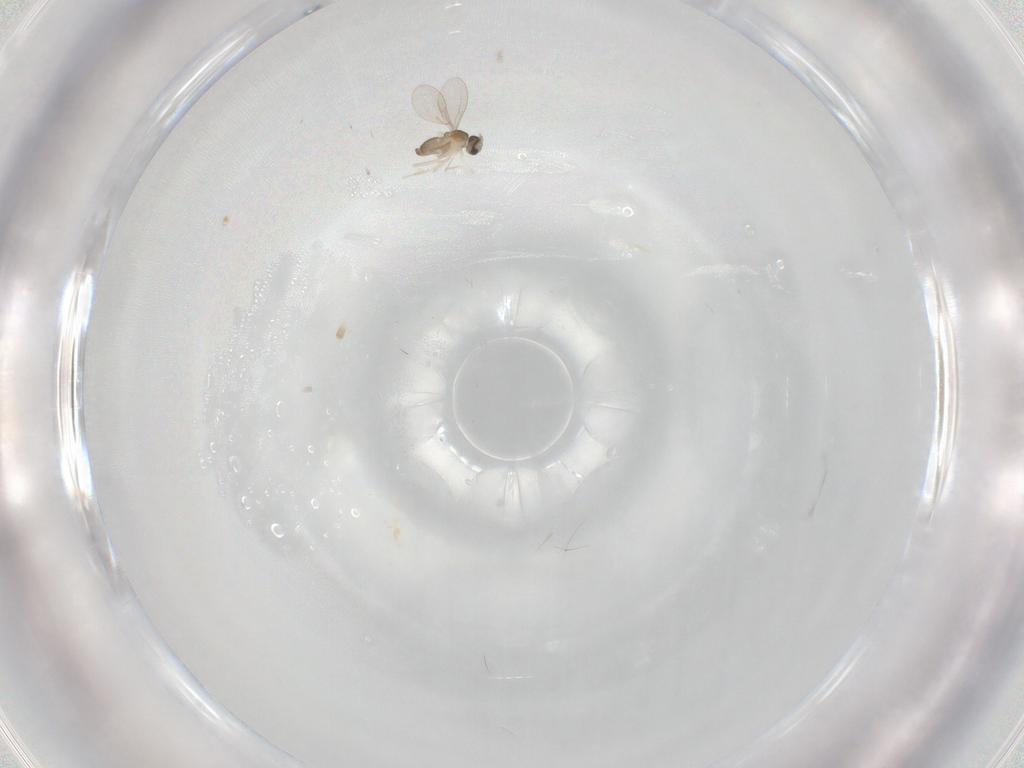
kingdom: Animalia
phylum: Arthropoda
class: Insecta
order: Diptera
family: Cecidomyiidae
